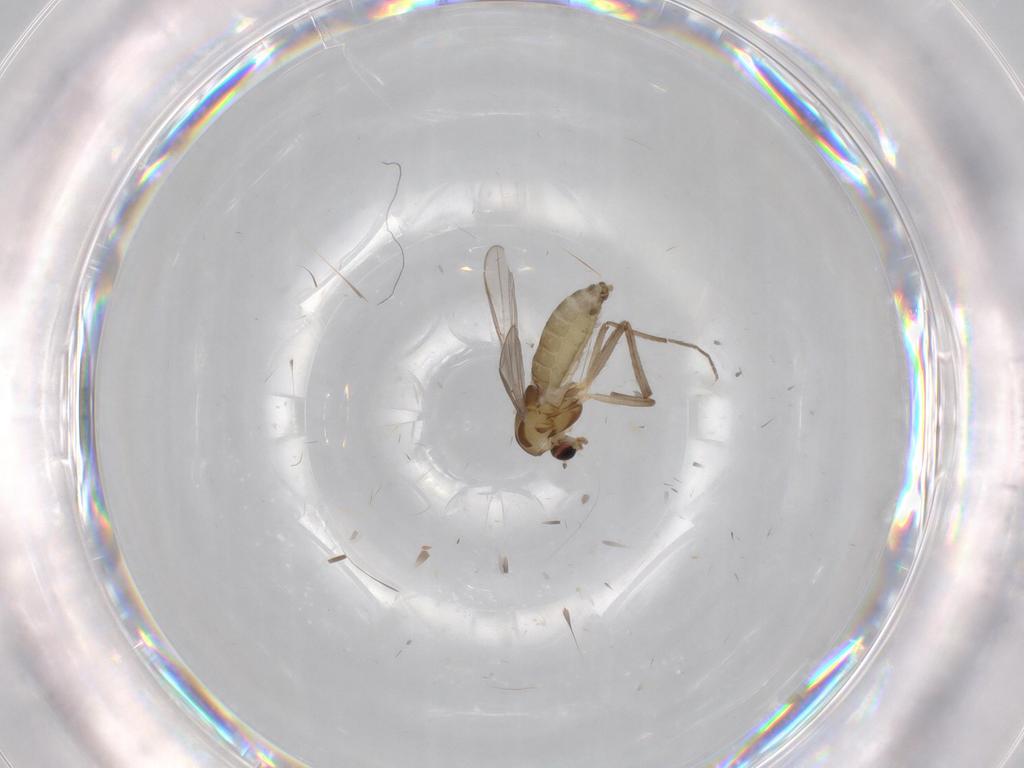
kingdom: Animalia
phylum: Arthropoda
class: Insecta
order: Diptera
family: Chironomidae
